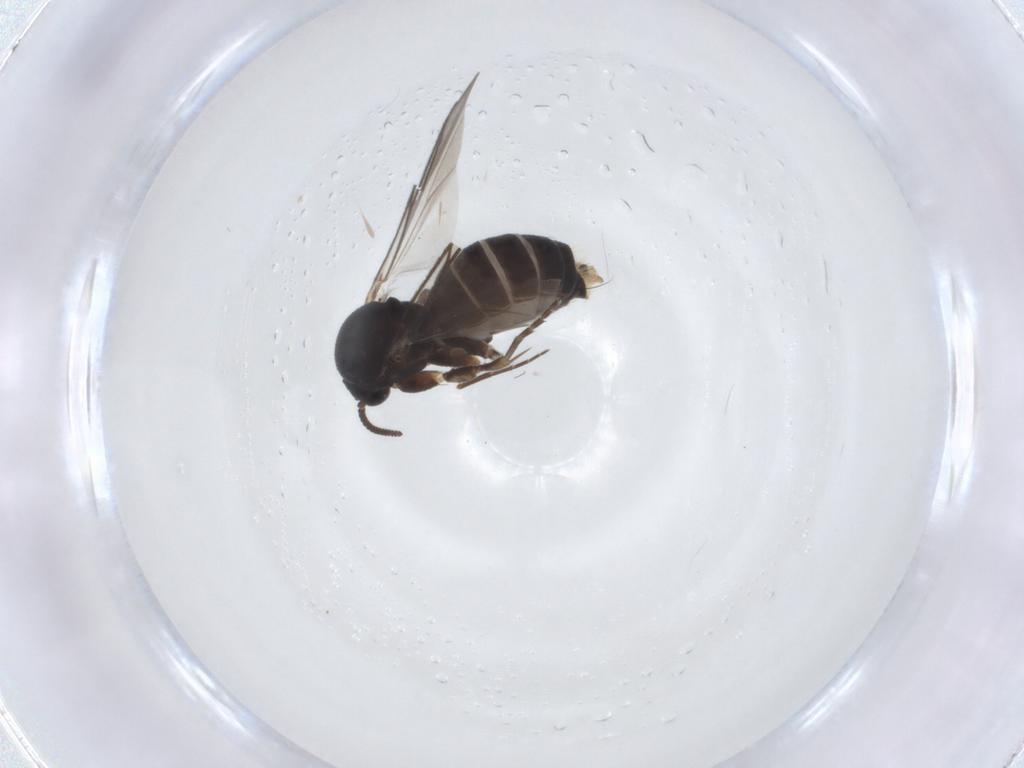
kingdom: Animalia
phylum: Arthropoda
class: Insecta
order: Diptera
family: Mycetophilidae
